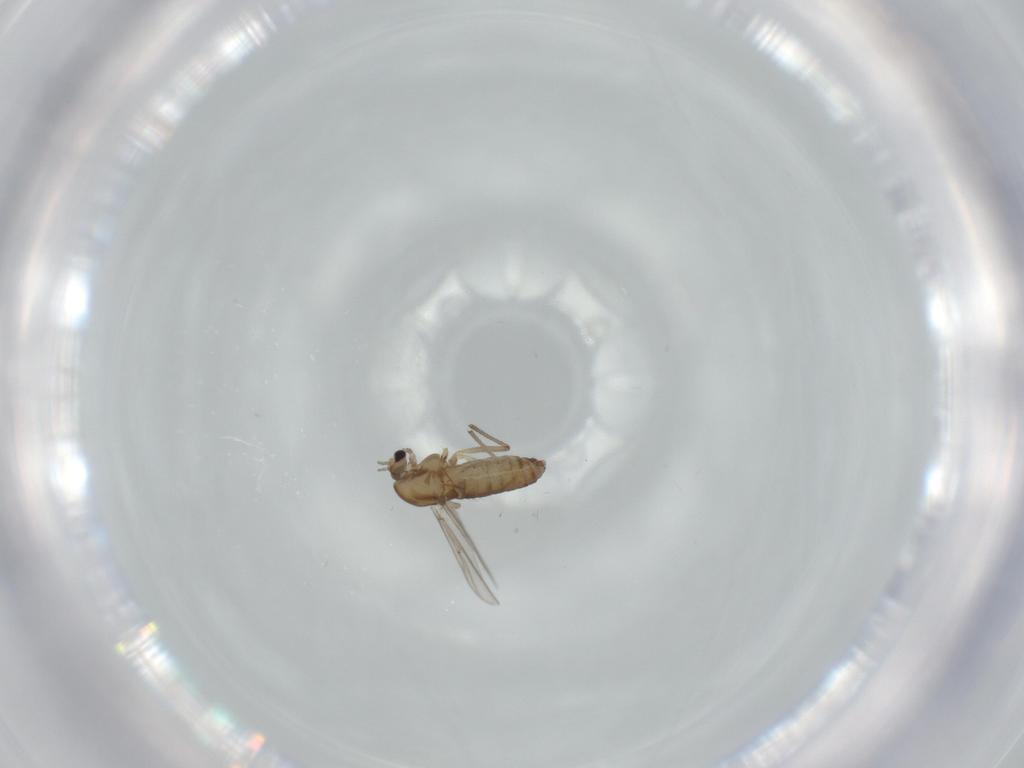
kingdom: Animalia
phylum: Arthropoda
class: Insecta
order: Diptera
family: Chironomidae
